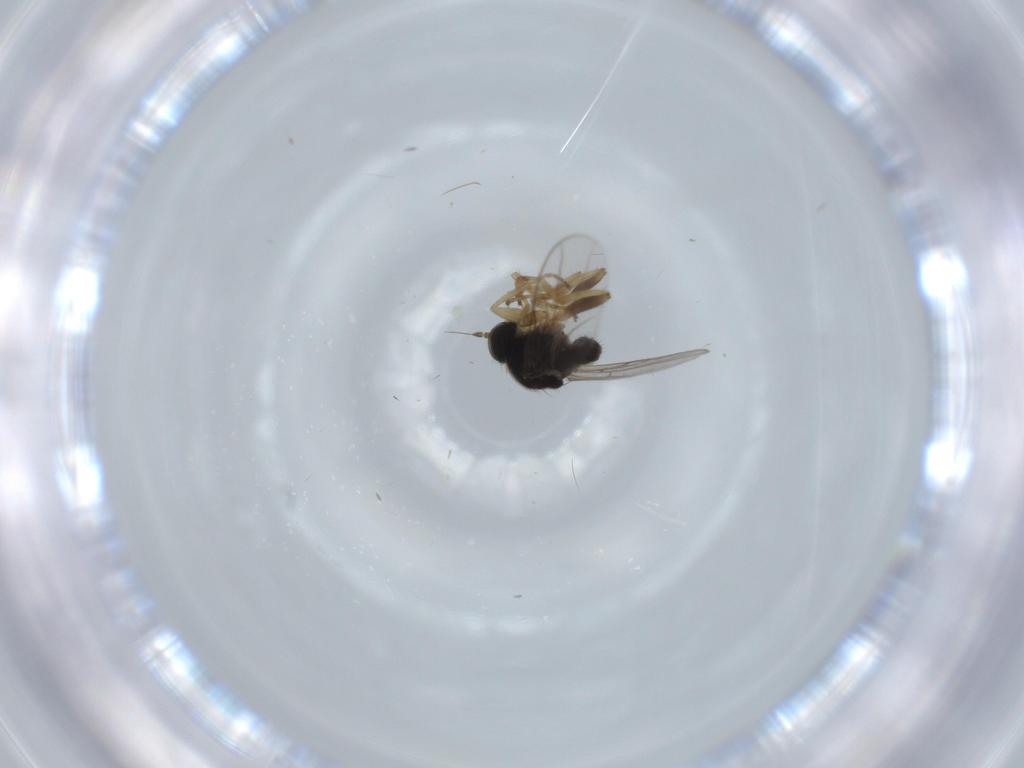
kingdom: Animalia
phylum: Arthropoda
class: Insecta
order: Diptera
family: Hybotidae
